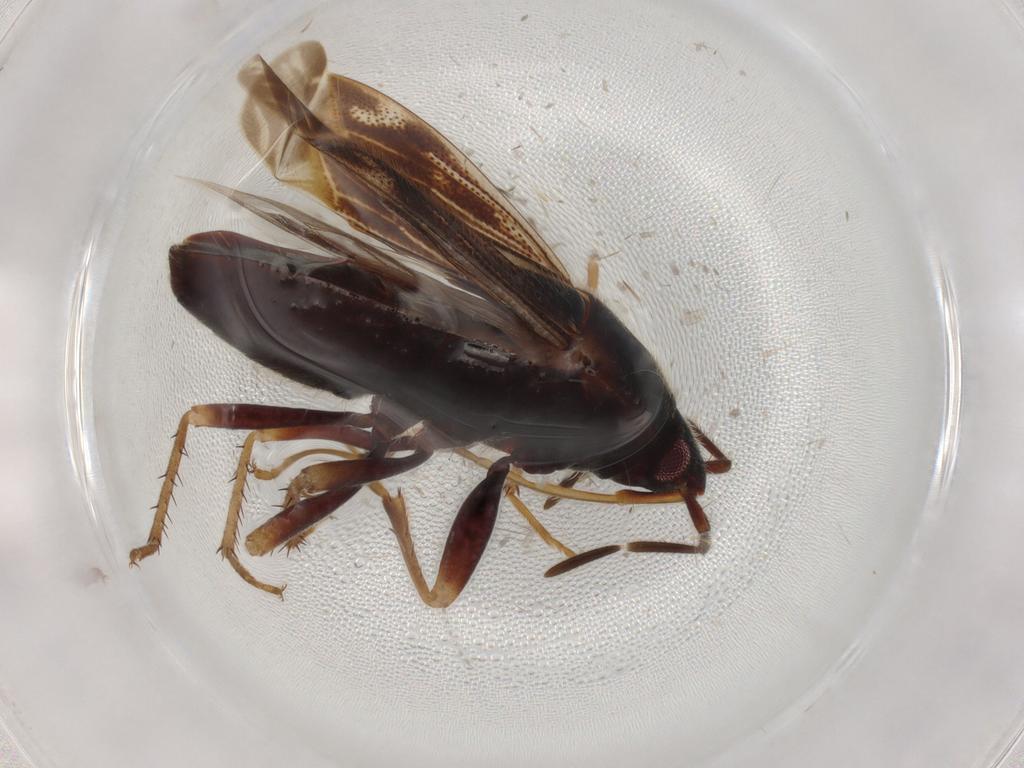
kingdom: Animalia
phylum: Arthropoda
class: Insecta
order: Hemiptera
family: Rhyparochromidae
